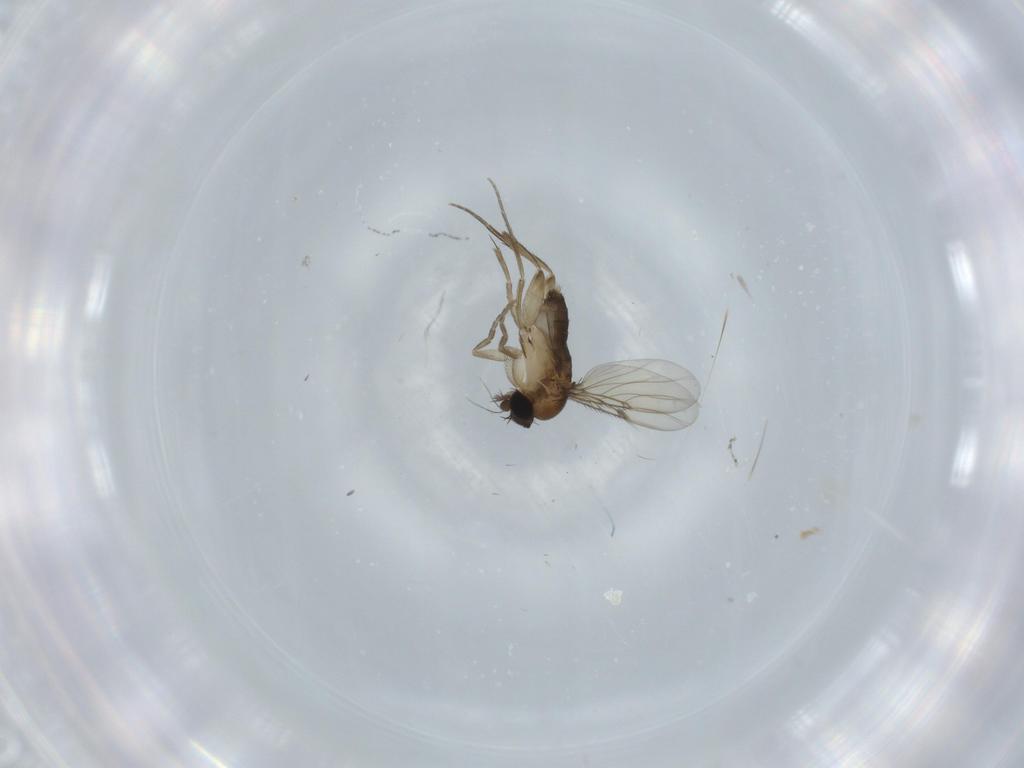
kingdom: Animalia
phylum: Arthropoda
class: Insecta
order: Diptera
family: Phoridae
